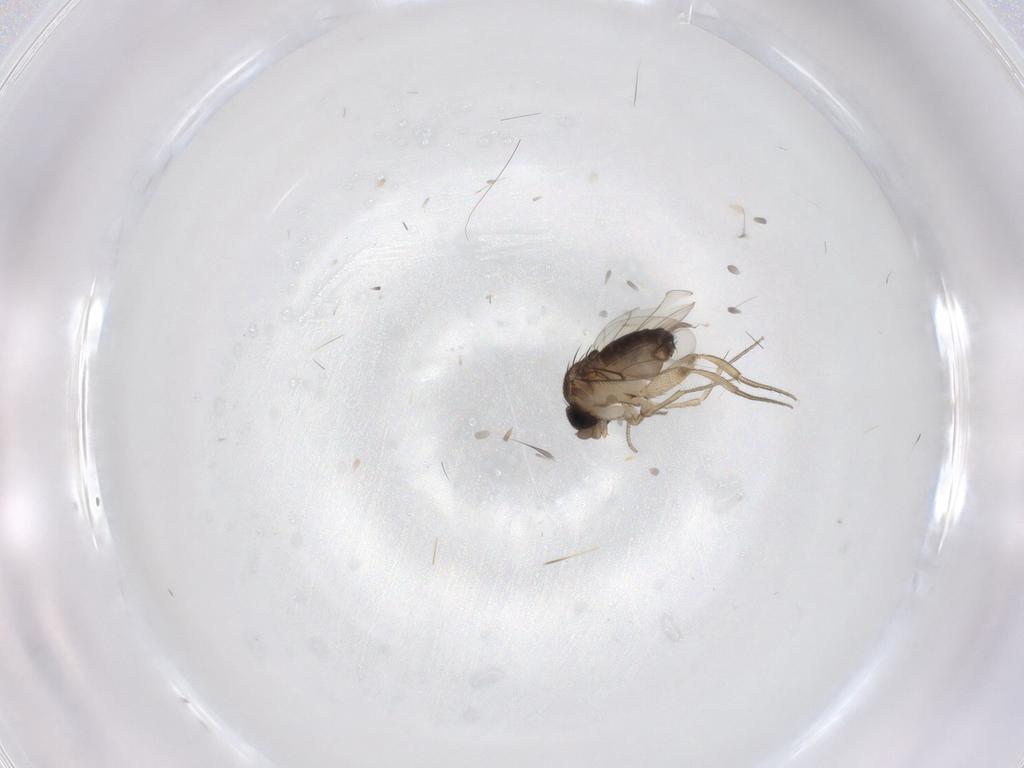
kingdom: Animalia
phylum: Arthropoda
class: Insecta
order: Diptera
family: Phoridae
